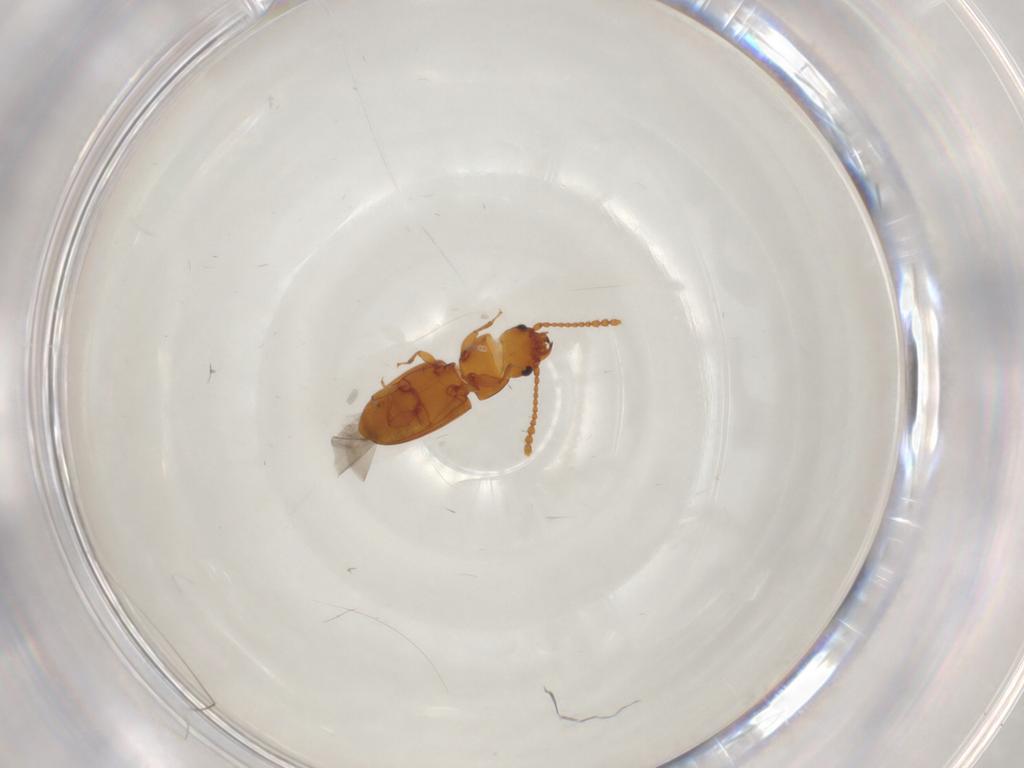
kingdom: Animalia
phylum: Arthropoda
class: Insecta
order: Coleoptera
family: Laemophloeidae
